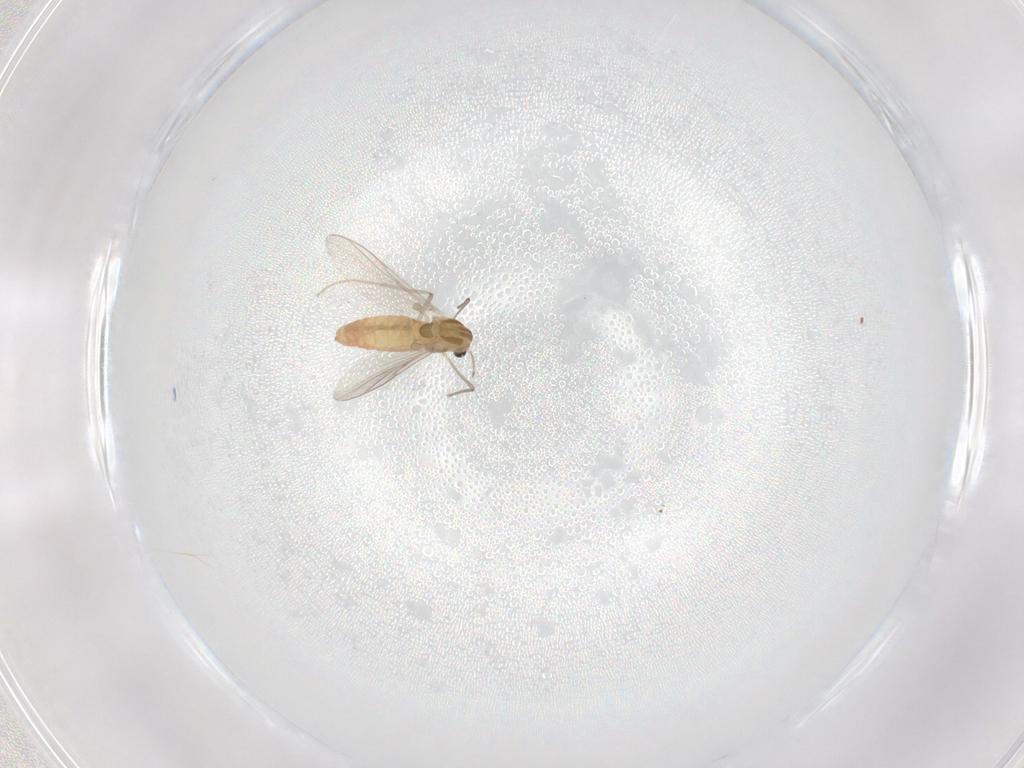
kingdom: Animalia
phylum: Arthropoda
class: Insecta
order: Diptera
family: Chironomidae
